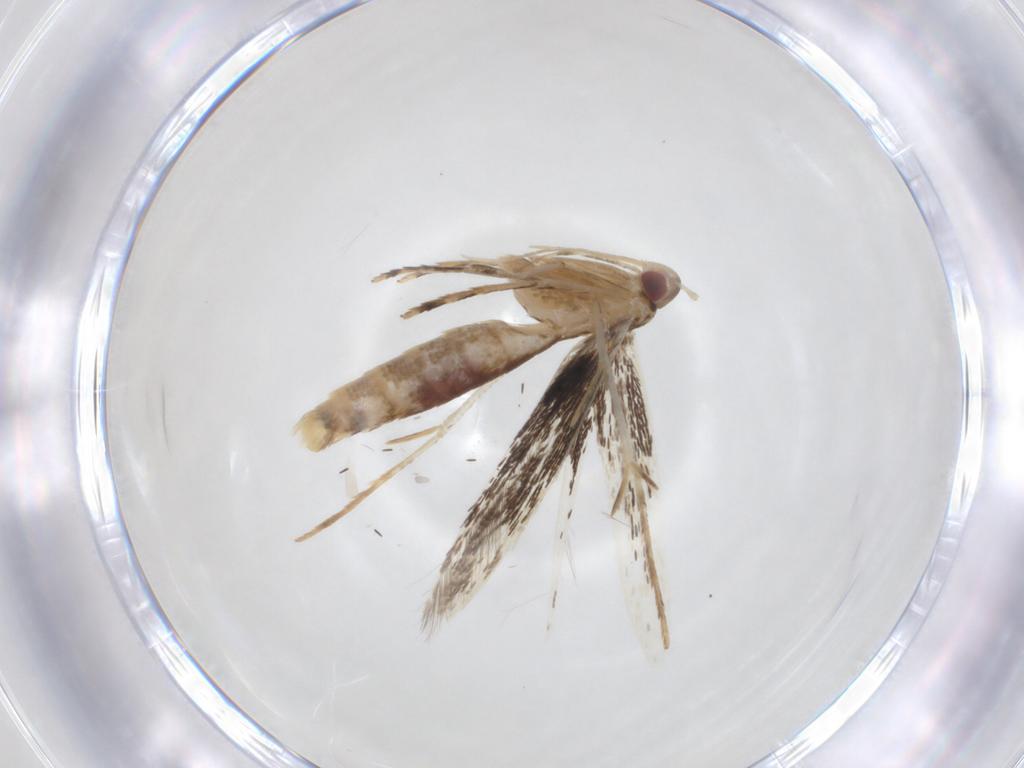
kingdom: Animalia
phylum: Arthropoda
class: Insecta
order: Lepidoptera
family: Cosmopterigidae
